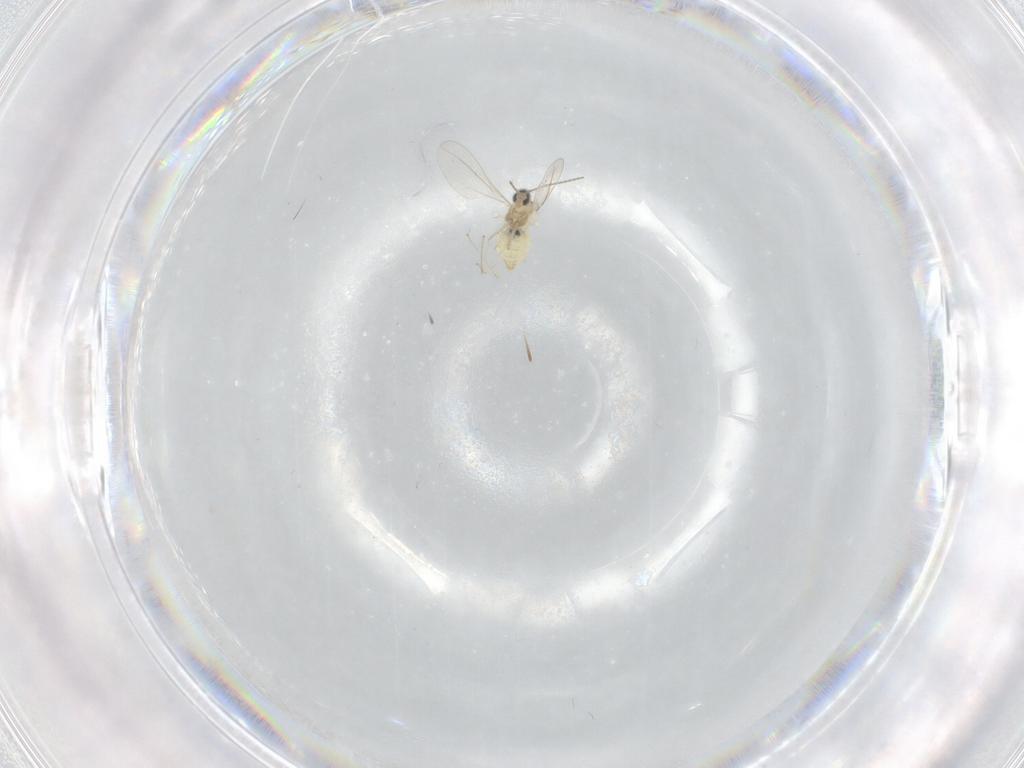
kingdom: Animalia
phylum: Arthropoda
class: Insecta
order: Diptera
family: Cecidomyiidae
